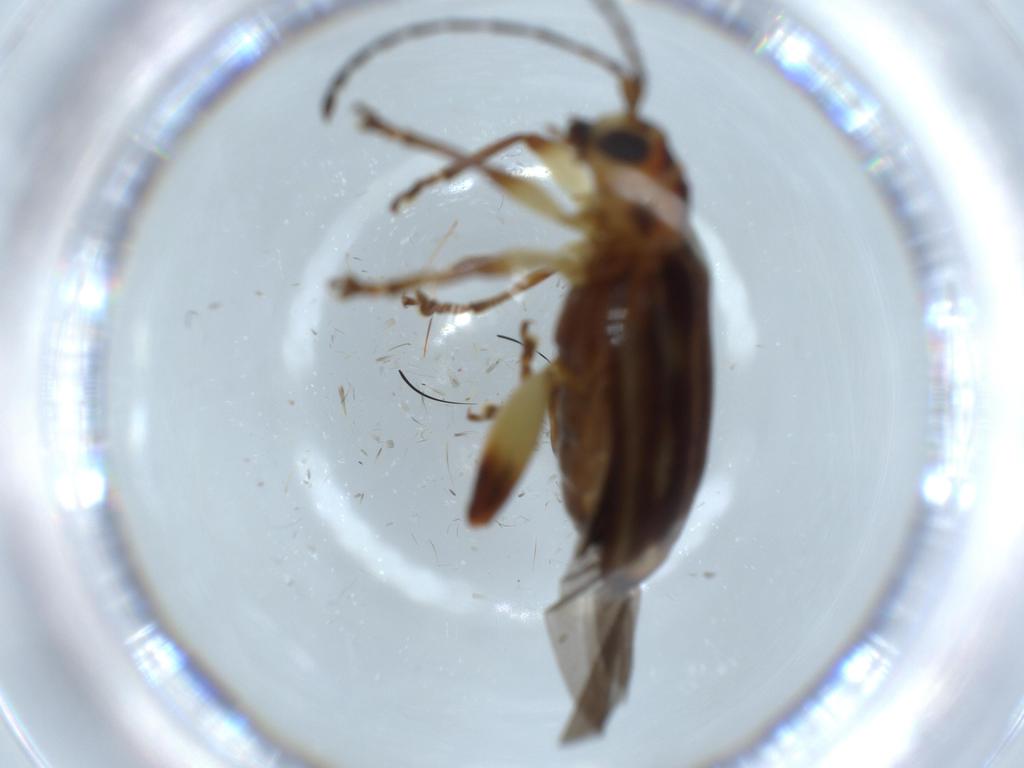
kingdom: Animalia
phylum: Arthropoda
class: Insecta
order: Coleoptera
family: Chrysomelidae
